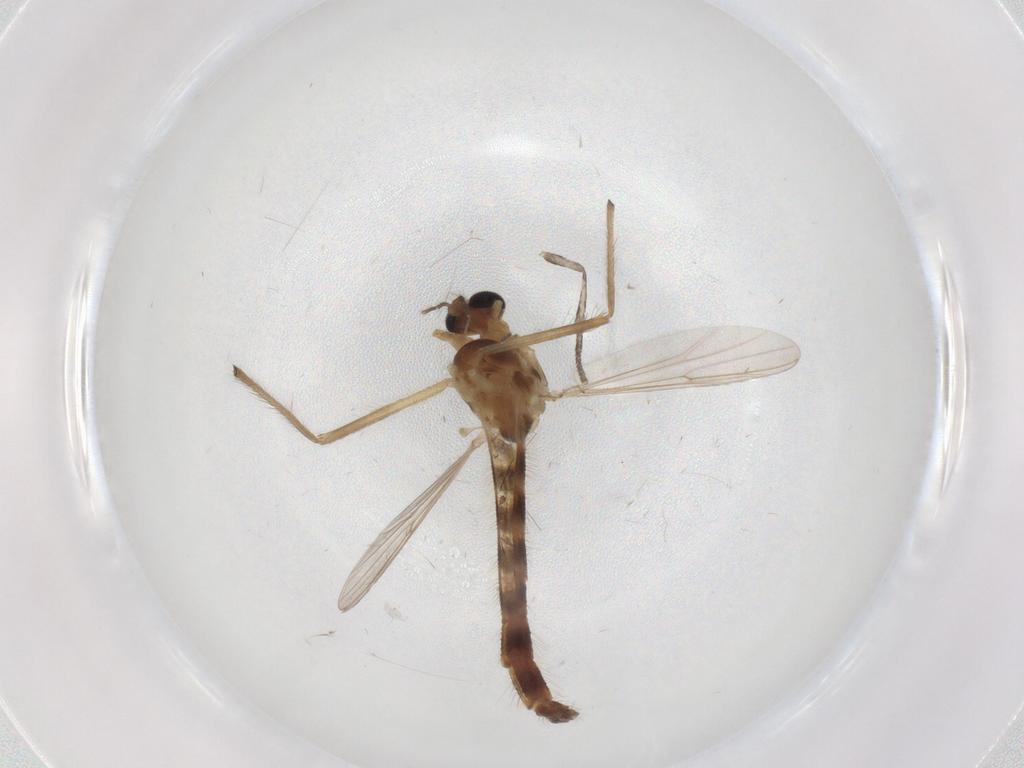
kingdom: Animalia
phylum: Arthropoda
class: Insecta
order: Diptera
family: Chironomidae
